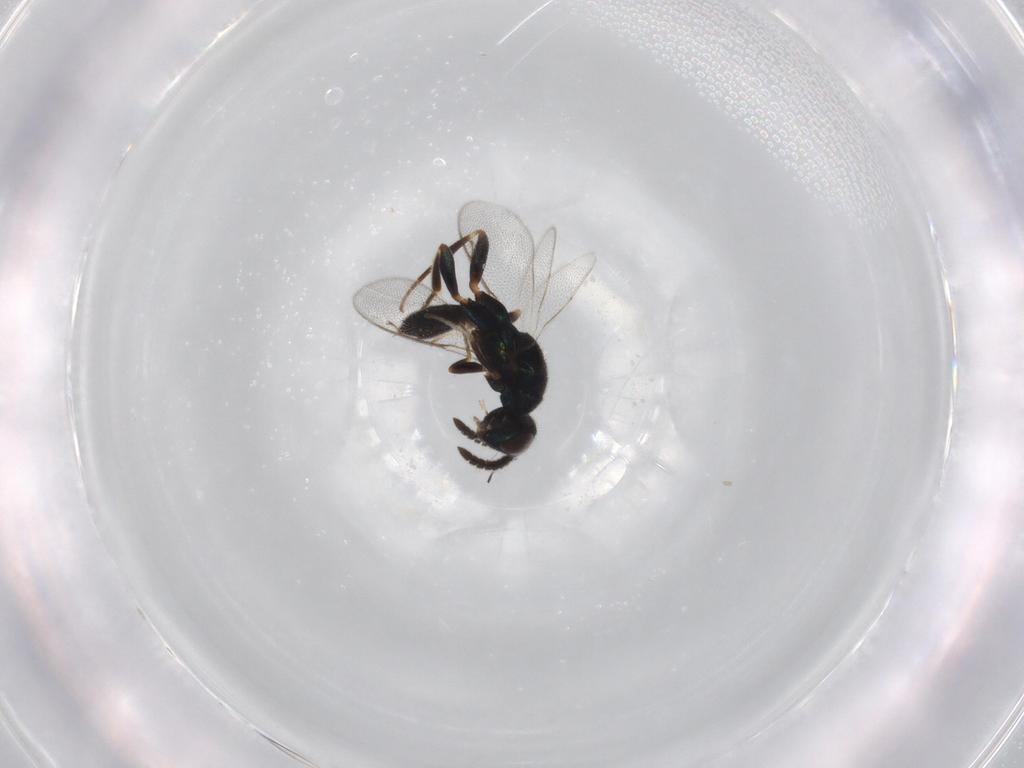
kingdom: Animalia
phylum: Arthropoda
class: Insecta
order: Hymenoptera
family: Cleonyminae
